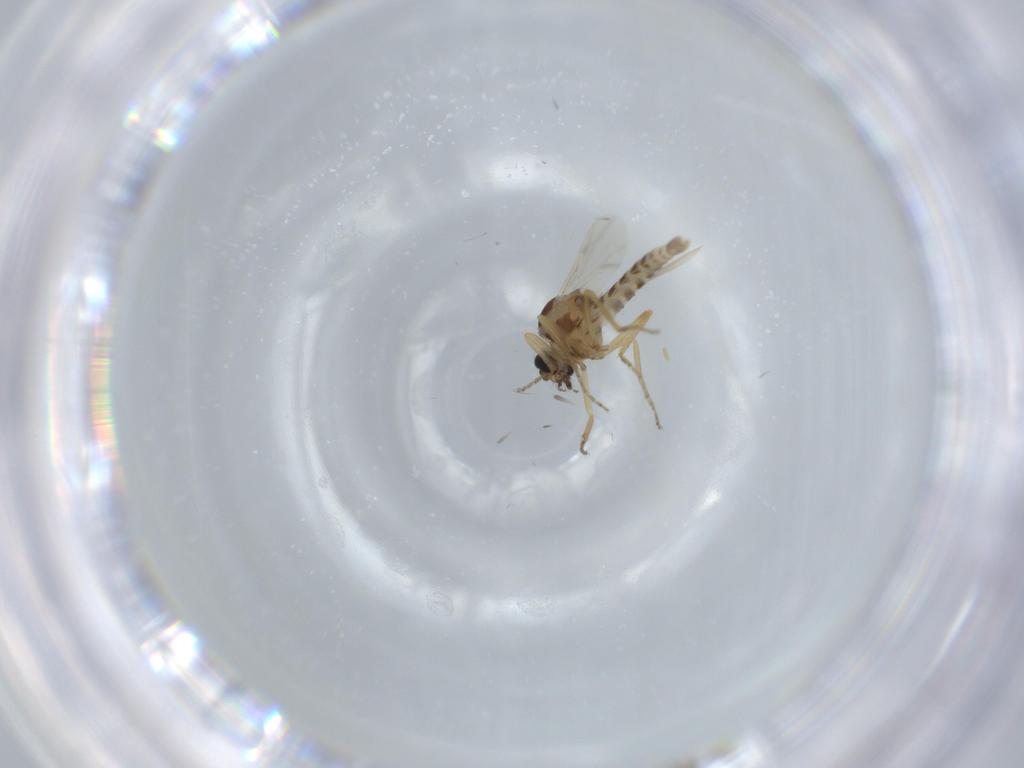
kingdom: Animalia
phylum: Arthropoda
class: Insecta
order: Diptera
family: Ceratopogonidae
